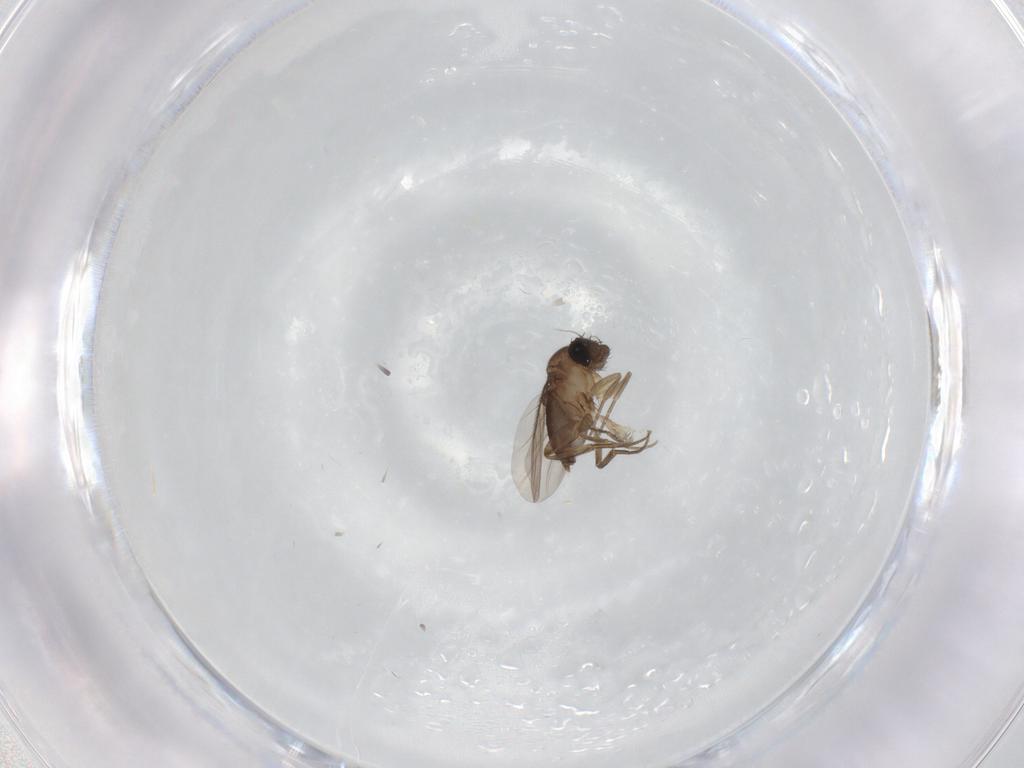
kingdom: Animalia
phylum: Arthropoda
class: Insecta
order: Diptera
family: Phoridae
